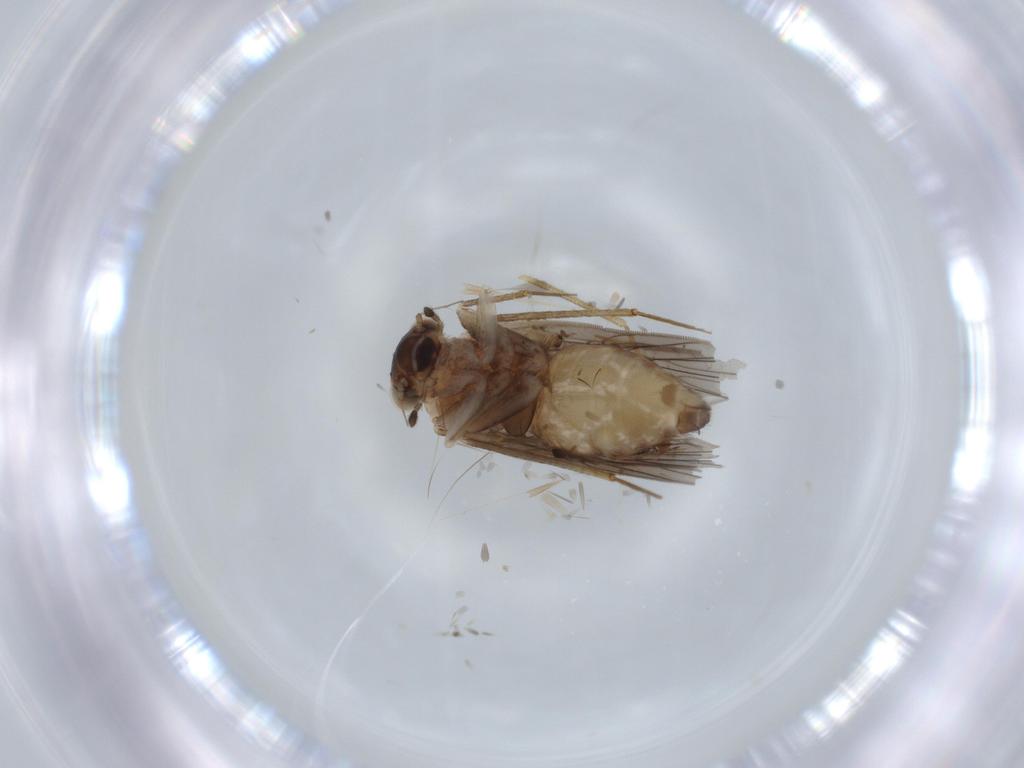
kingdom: Animalia
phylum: Arthropoda
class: Insecta
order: Psocodea
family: Lepidopsocidae
